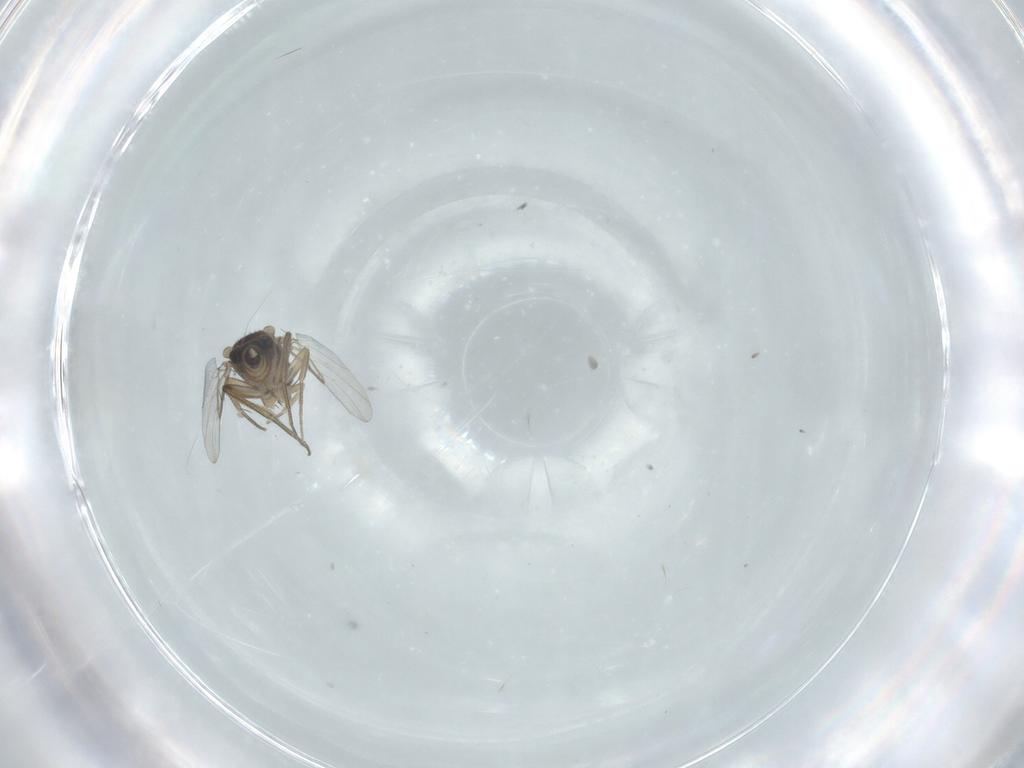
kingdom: Animalia
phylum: Arthropoda
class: Insecta
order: Diptera
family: Phoridae
